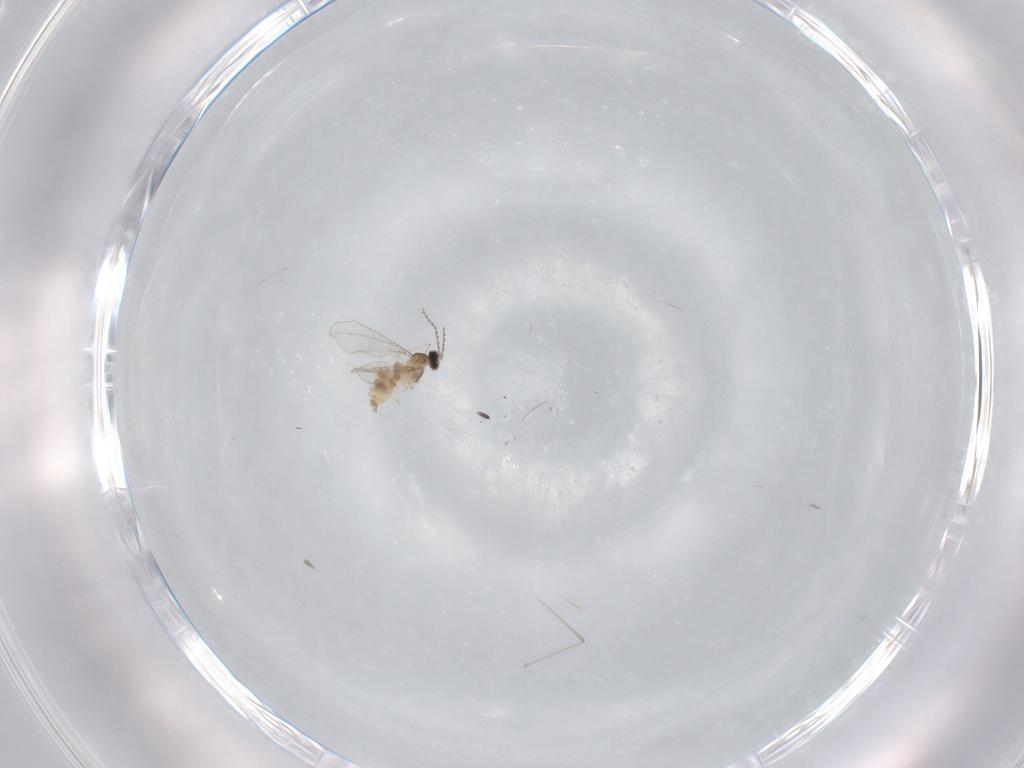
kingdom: Animalia
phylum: Arthropoda
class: Insecta
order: Diptera
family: Cecidomyiidae
